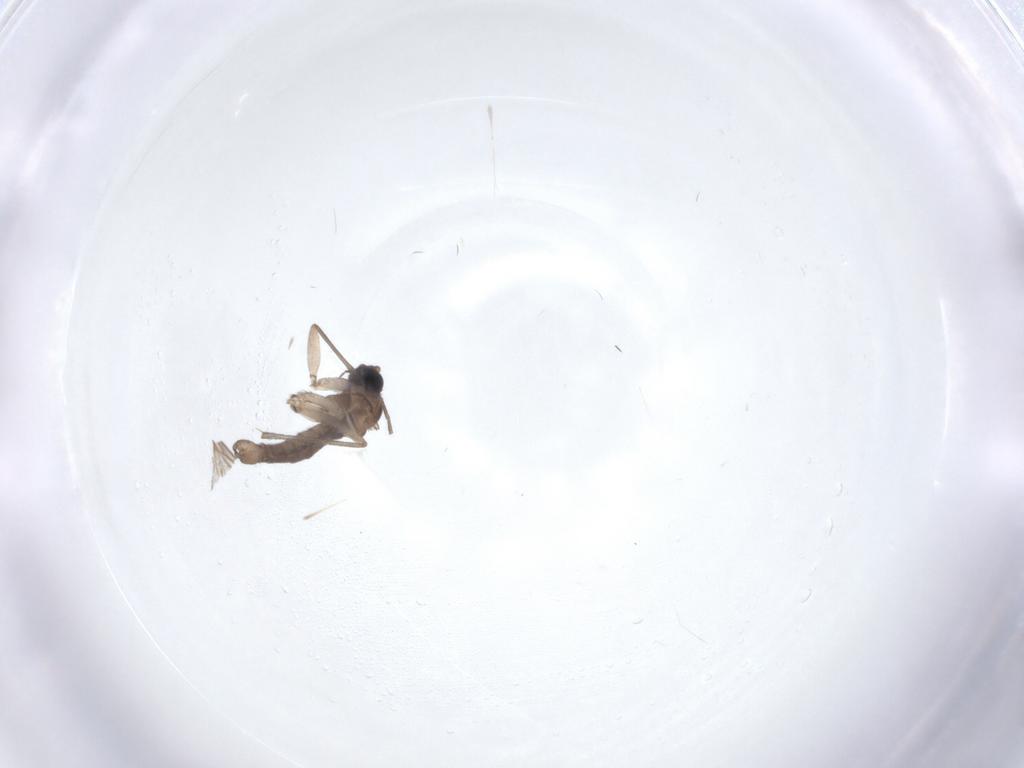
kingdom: Animalia
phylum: Arthropoda
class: Insecta
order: Diptera
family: Sciaridae
